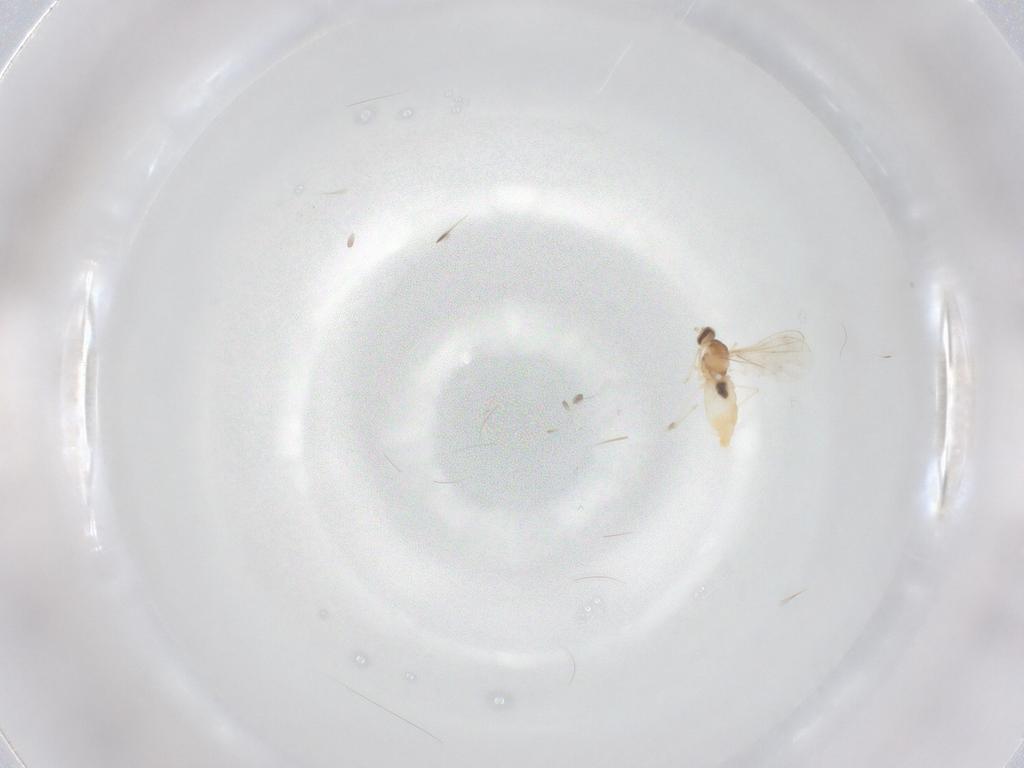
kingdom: Animalia
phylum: Arthropoda
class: Insecta
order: Diptera
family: Cecidomyiidae
